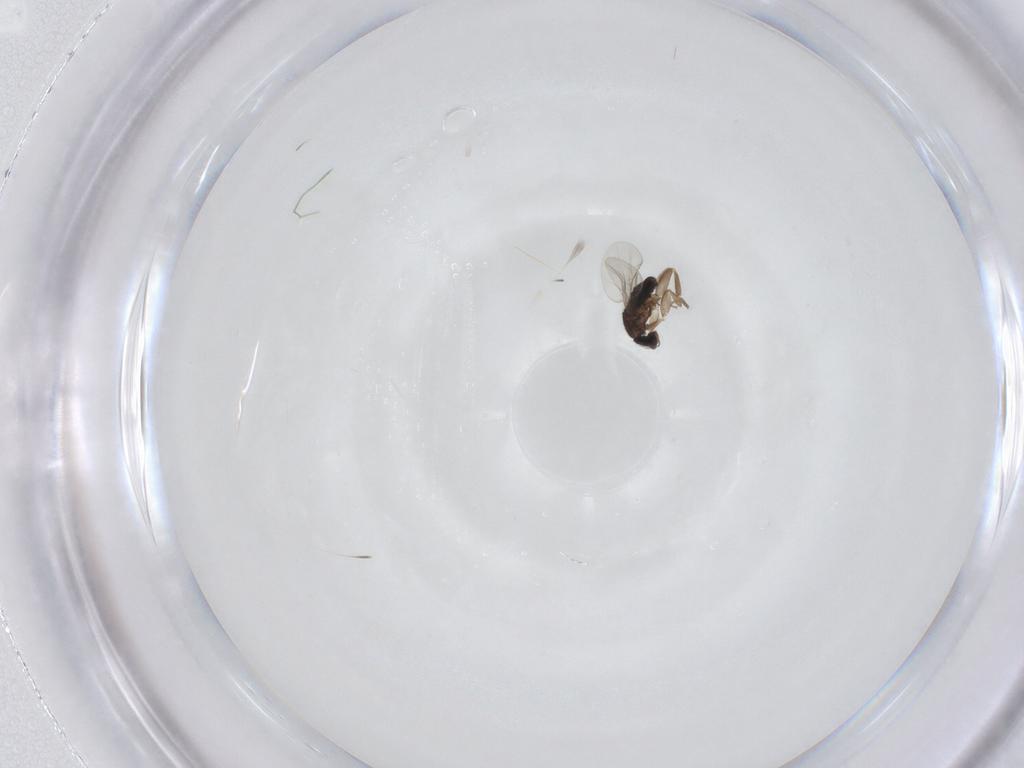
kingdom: Animalia
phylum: Arthropoda
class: Insecta
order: Diptera
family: Phoridae
